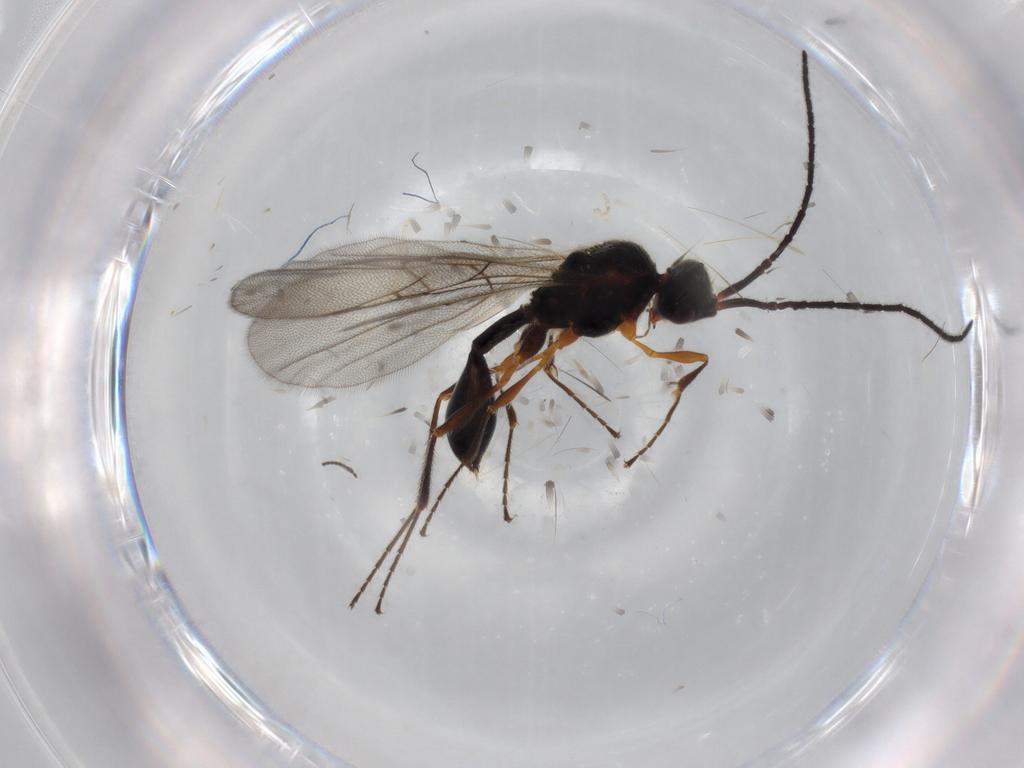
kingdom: Animalia
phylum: Arthropoda
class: Insecta
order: Hymenoptera
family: Diapriidae
